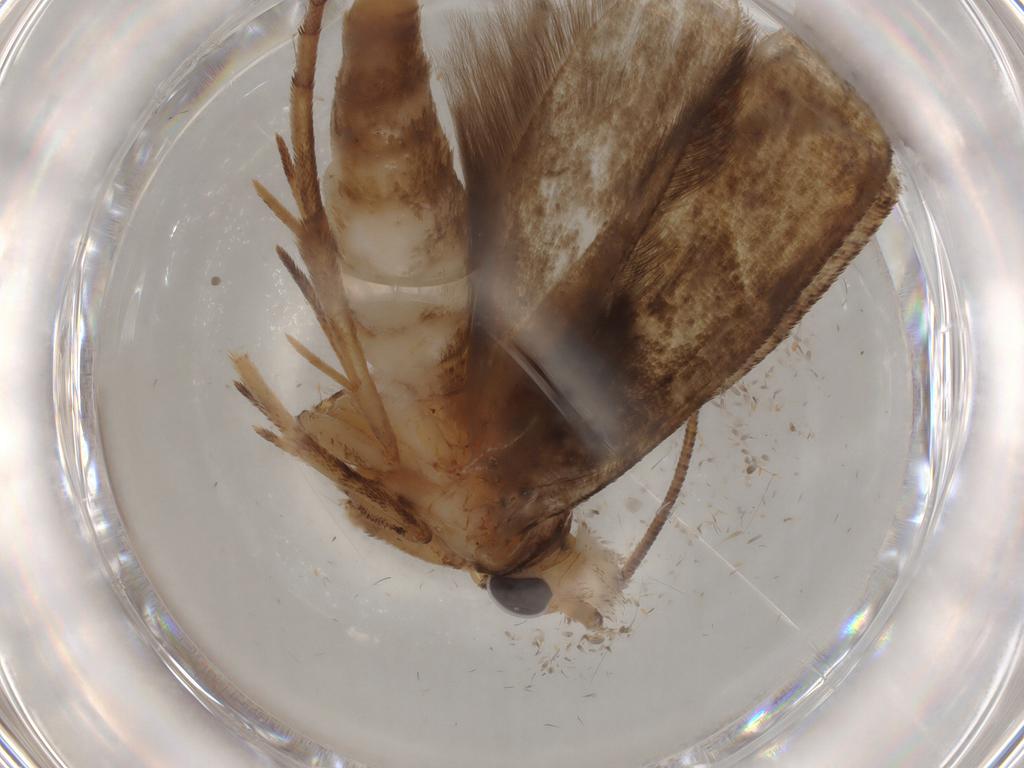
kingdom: Animalia
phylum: Arthropoda
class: Insecta
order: Lepidoptera
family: Yponomeutidae
